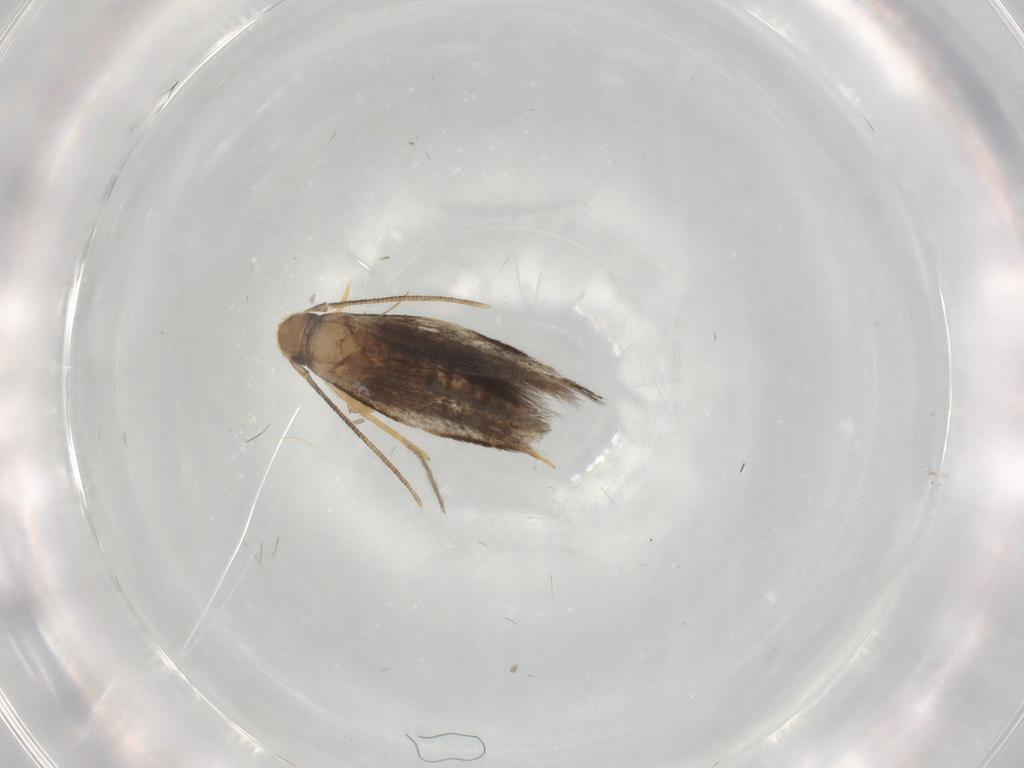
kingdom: Animalia
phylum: Arthropoda
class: Insecta
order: Lepidoptera
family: Gelechiidae
